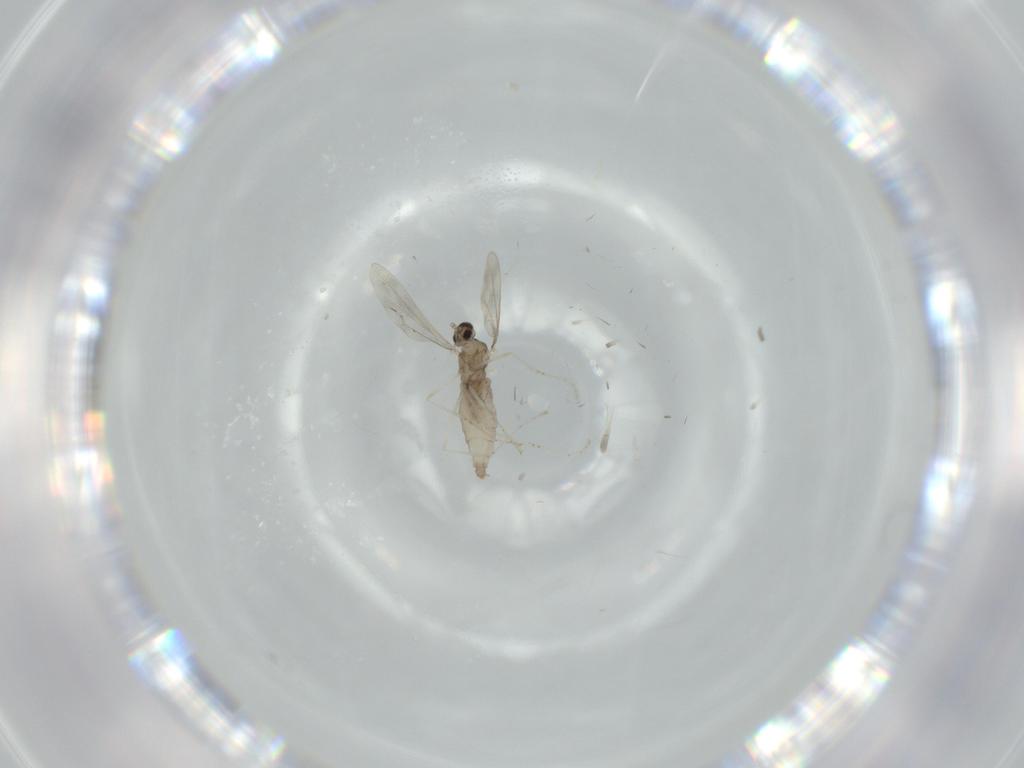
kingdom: Animalia
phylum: Arthropoda
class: Insecta
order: Diptera
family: Cecidomyiidae
